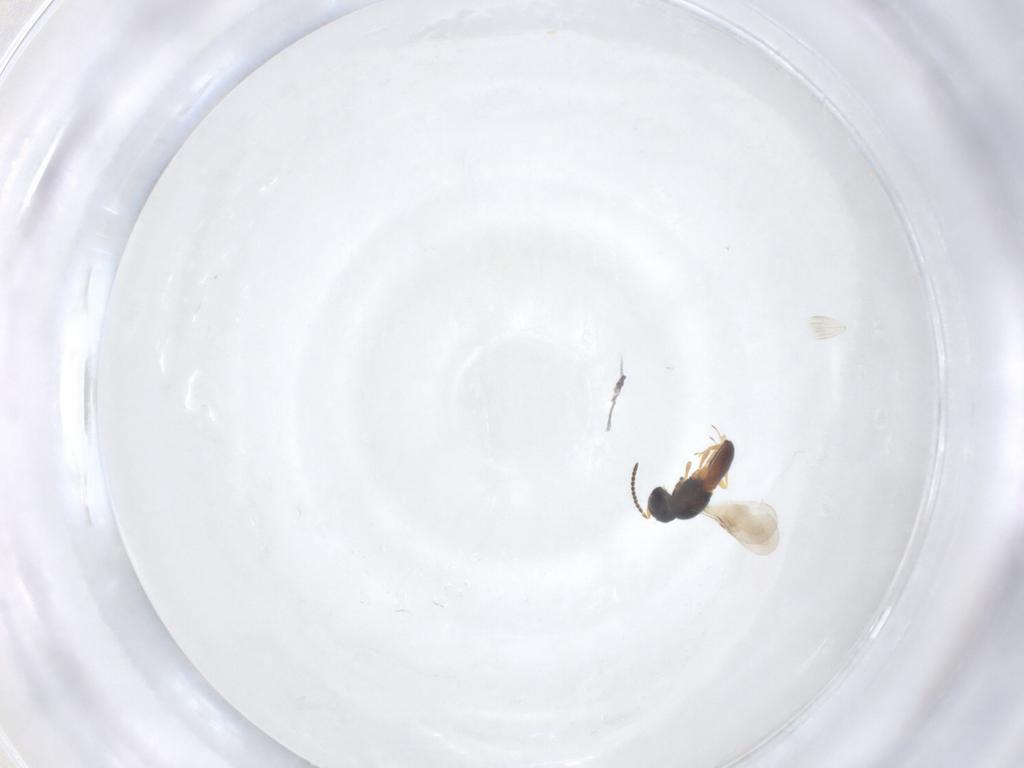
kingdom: Animalia
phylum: Arthropoda
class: Insecta
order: Hymenoptera
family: Scelionidae
